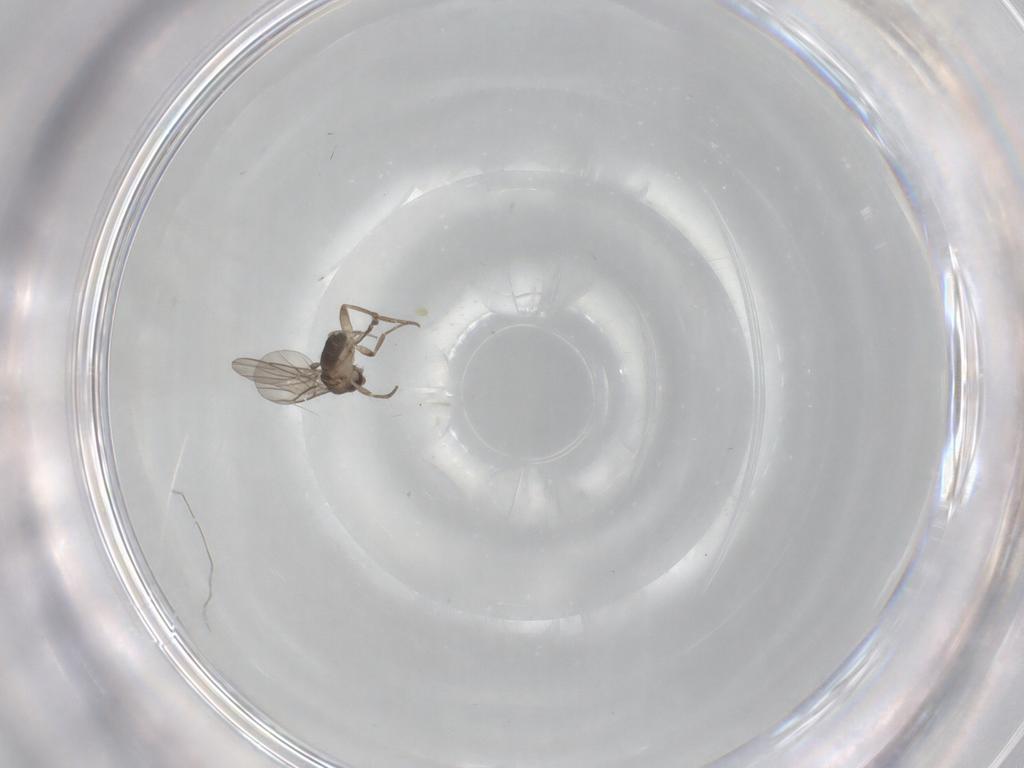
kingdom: Animalia
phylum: Arthropoda
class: Insecta
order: Diptera
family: Phoridae
